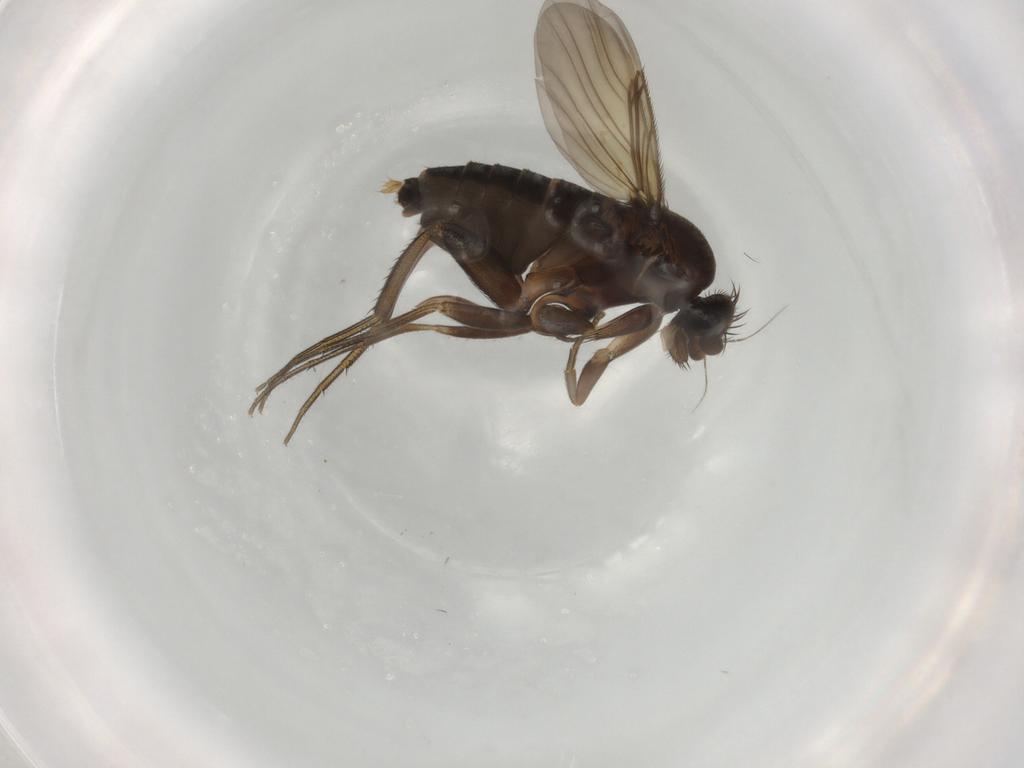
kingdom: Animalia
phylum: Arthropoda
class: Insecta
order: Diptera
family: Phoridae
